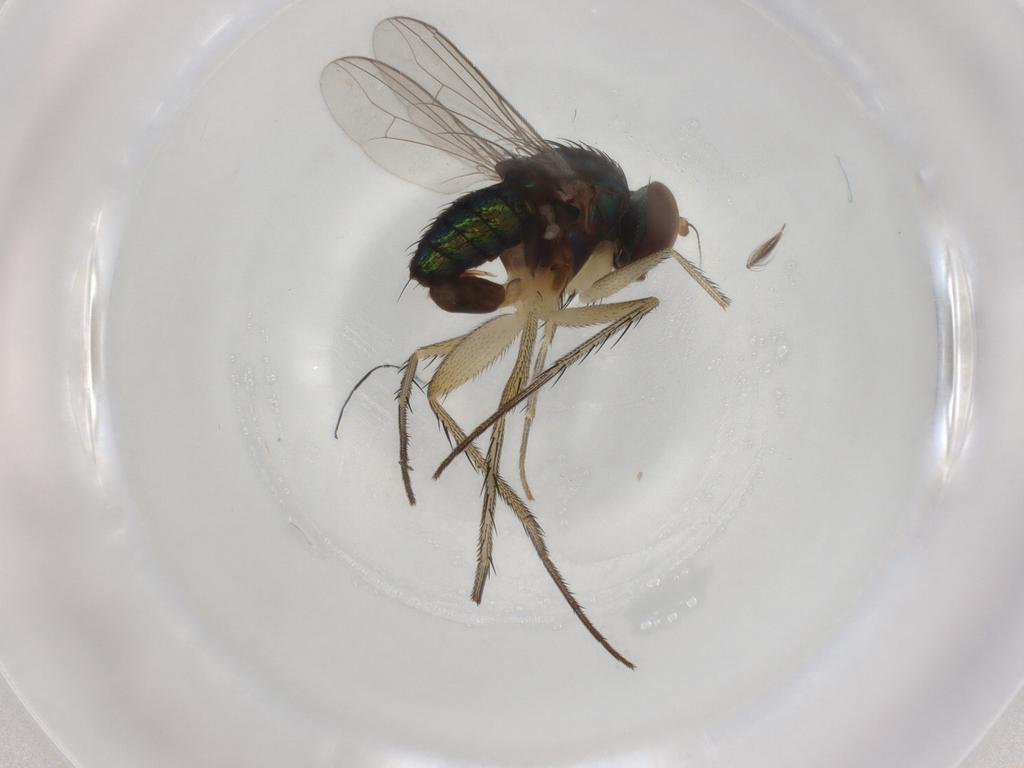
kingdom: Animalia
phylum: Arthropoda
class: Insecta
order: Diptera
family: Dolichopodidae
